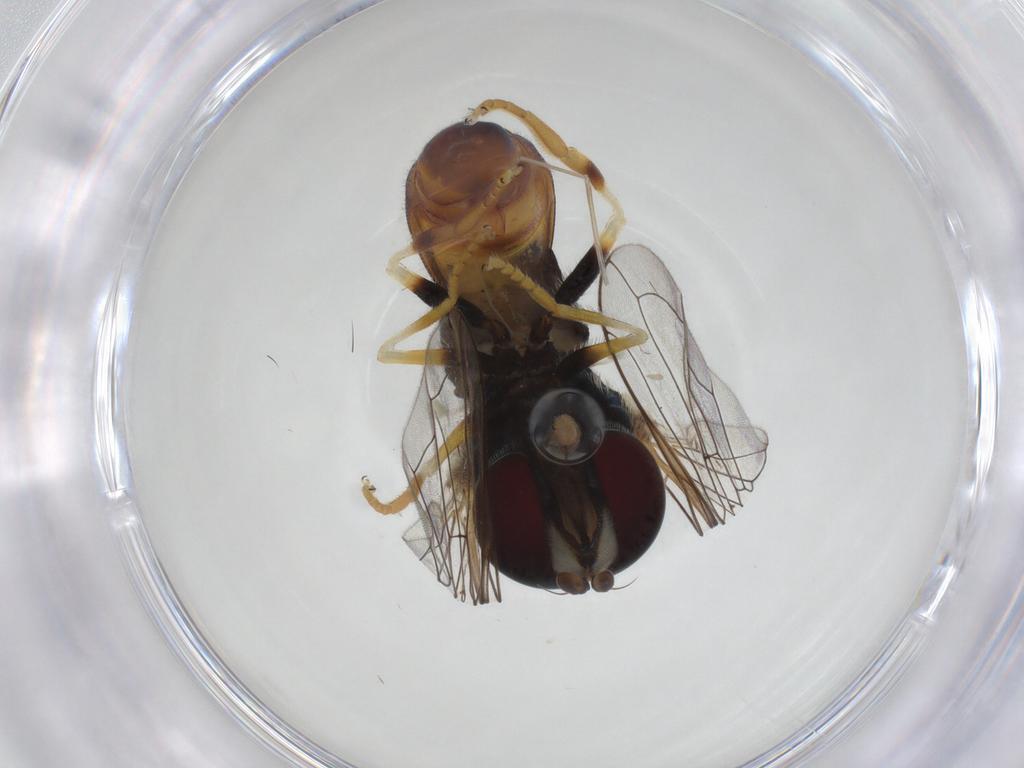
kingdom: Animalia
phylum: Arthropoda
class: Insecta
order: Diptera
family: Syrphidae
